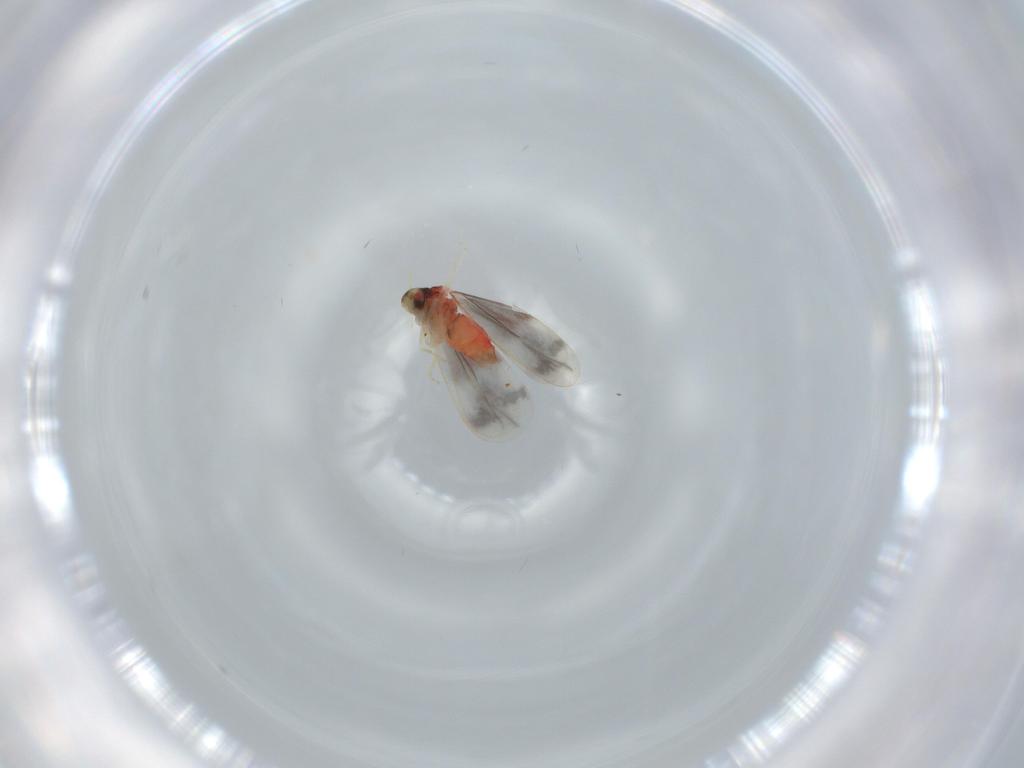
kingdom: Animalia
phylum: Arthropoda
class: Insecta
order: Hemiptera
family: Aleyrodidae
